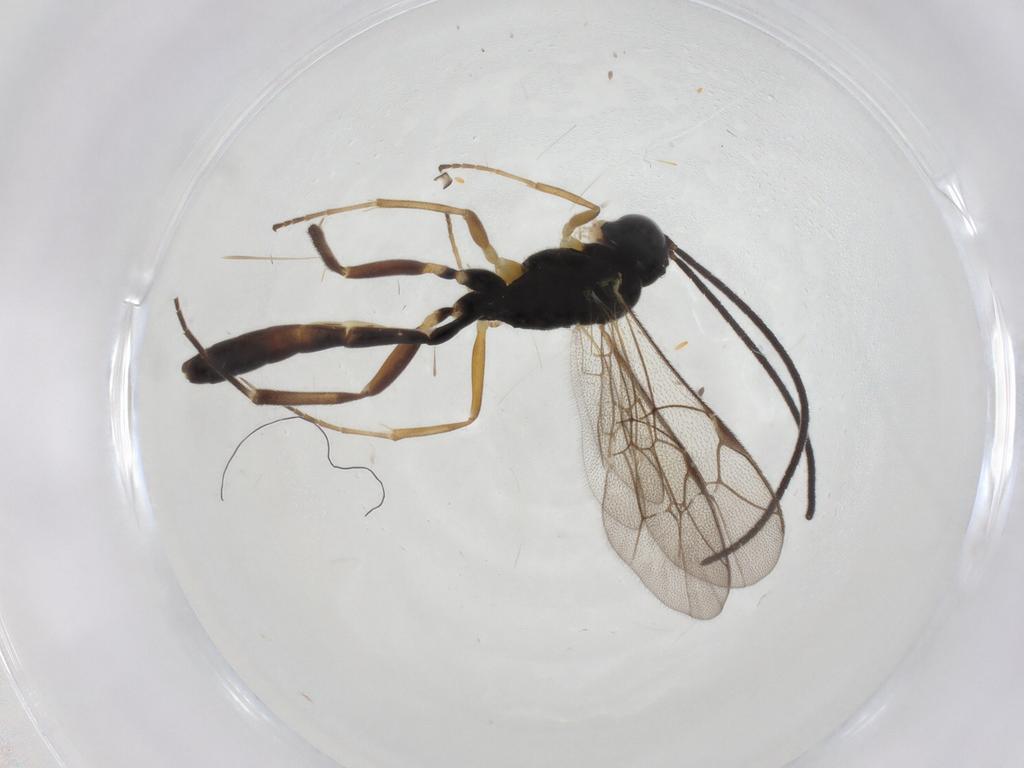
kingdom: Animalia
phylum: Arthropoda
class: Insecta
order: Hymenoptera
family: Ichneumonidae
